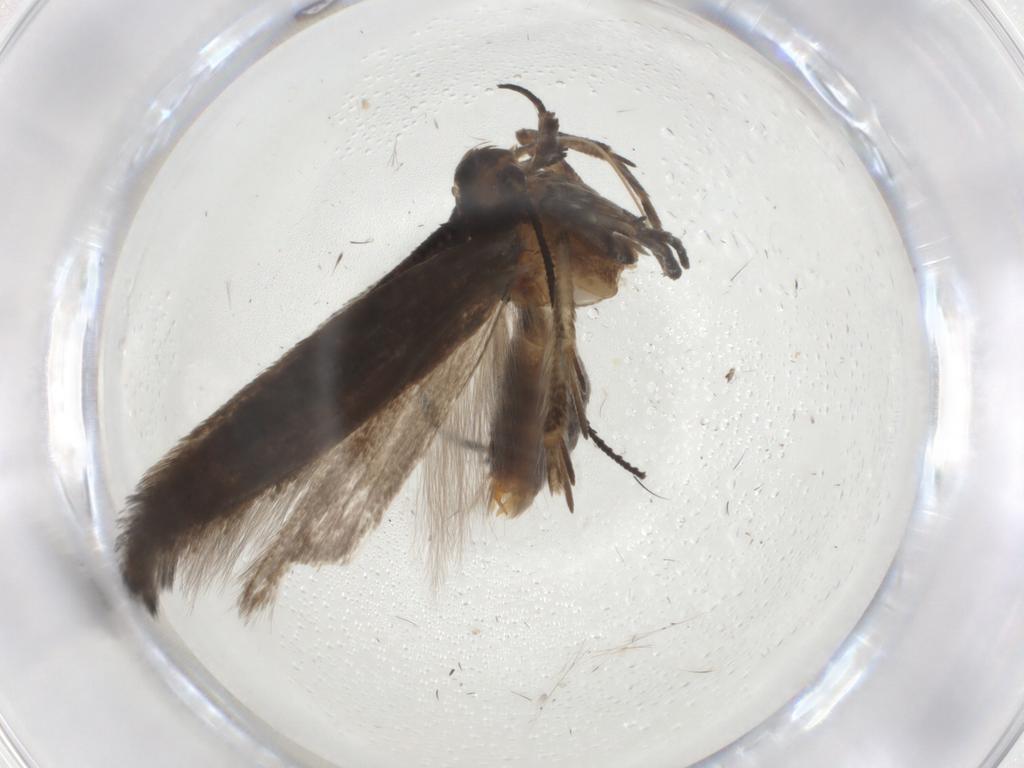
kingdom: Animalia
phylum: Arthropoda
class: Insecta
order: Lepidoptera
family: Gelechiidae
